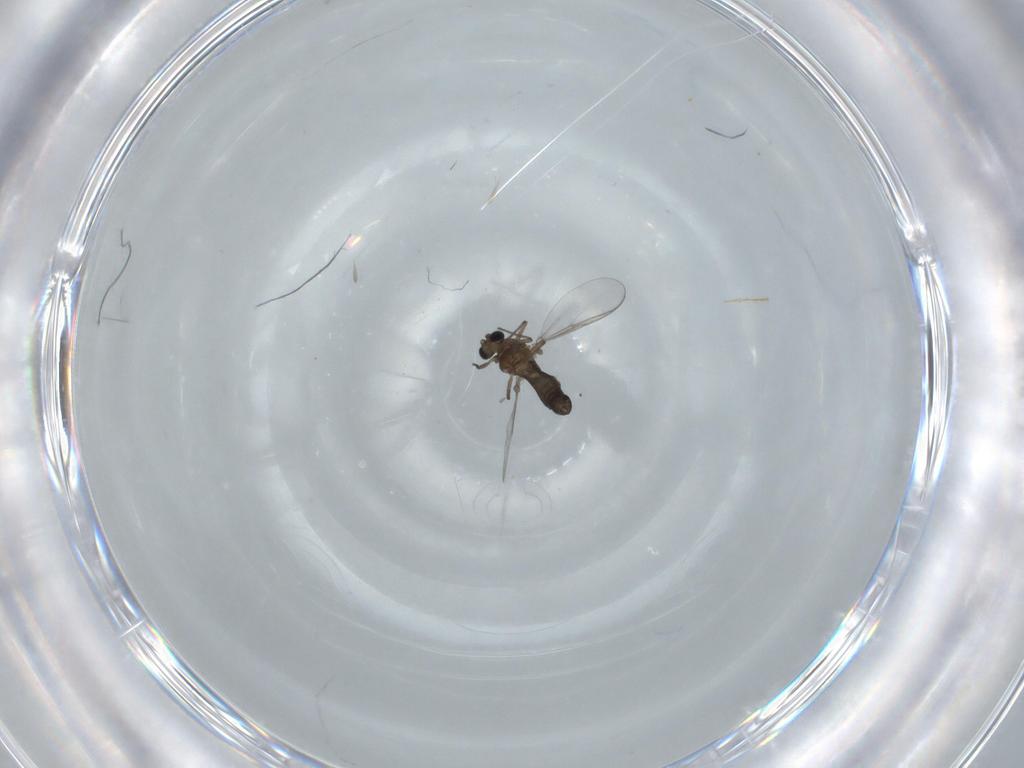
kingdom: Animalia
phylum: Arthropoda
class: Insecta
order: Diptera
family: Chironomidae
